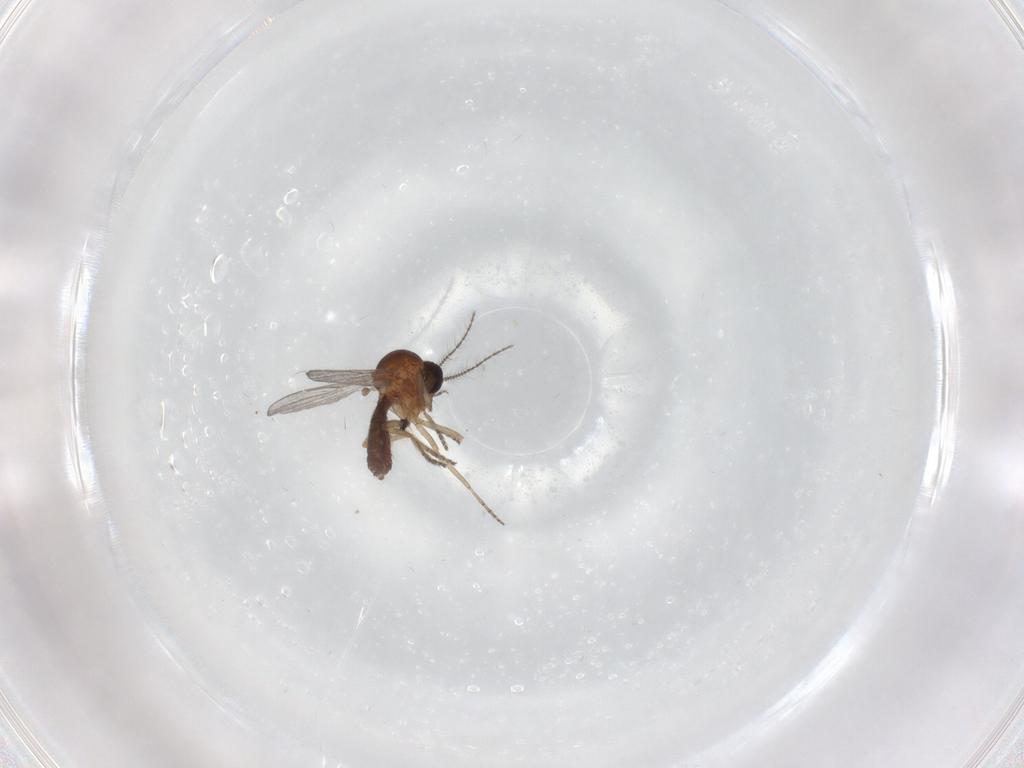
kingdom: Animalia
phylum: Arthropoda
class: Insecta
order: Diptera
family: Ceratopogonidae
